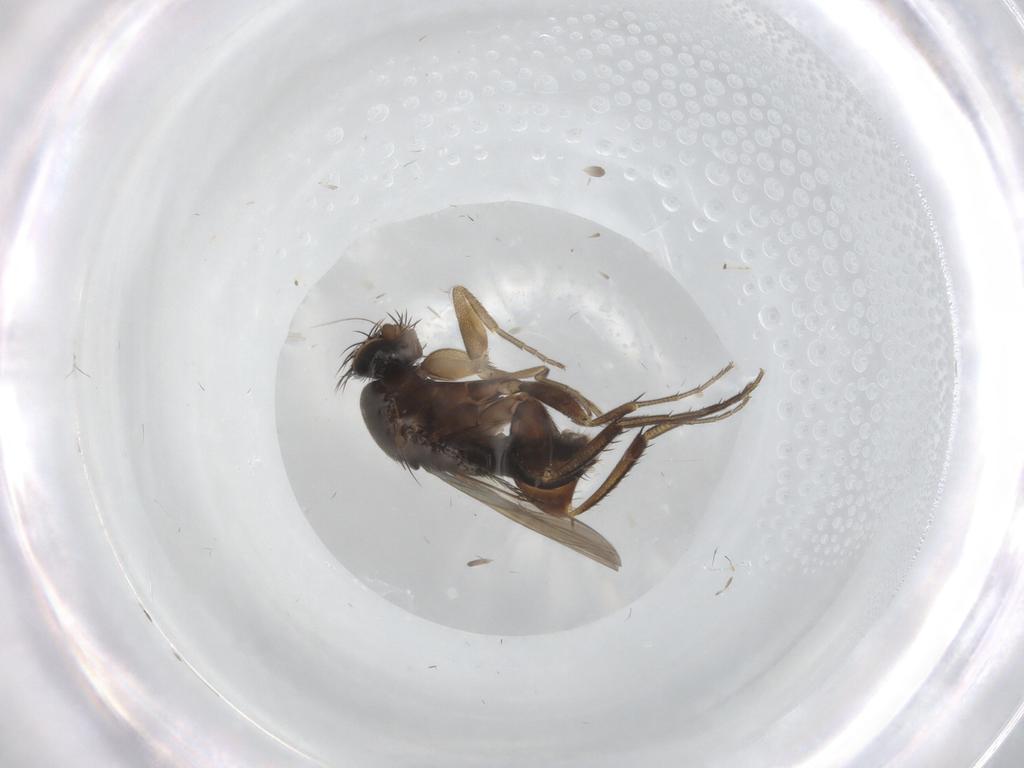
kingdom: Animalia
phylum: Arthropoda
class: Insecta
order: Diptera
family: Phoridae
